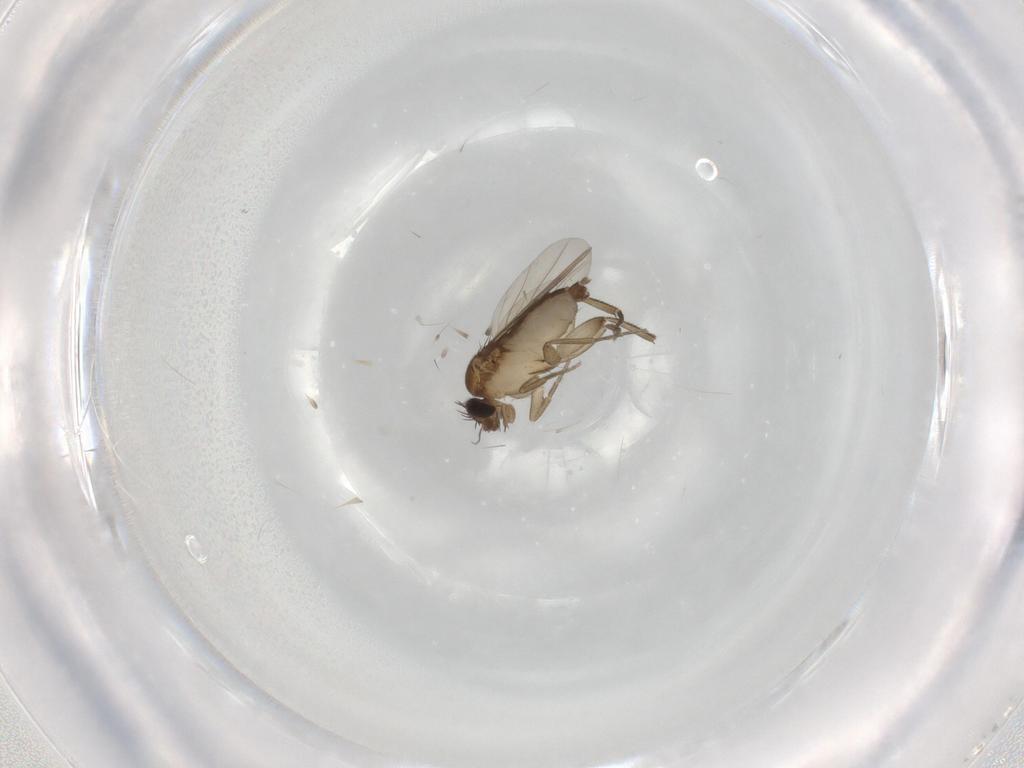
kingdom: Animalia
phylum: Arthropoda
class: Insecta
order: Diptera
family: Phoridae
